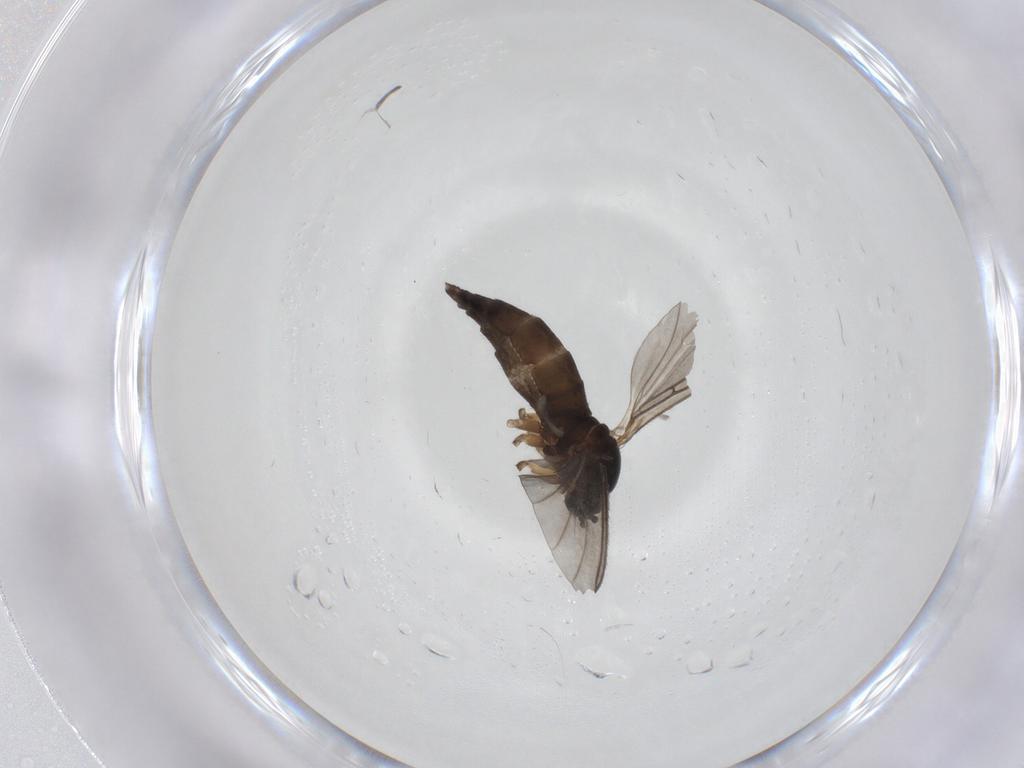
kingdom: Animalia
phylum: Arthropoda
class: Insecta
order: Diptera
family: Sciaridae
